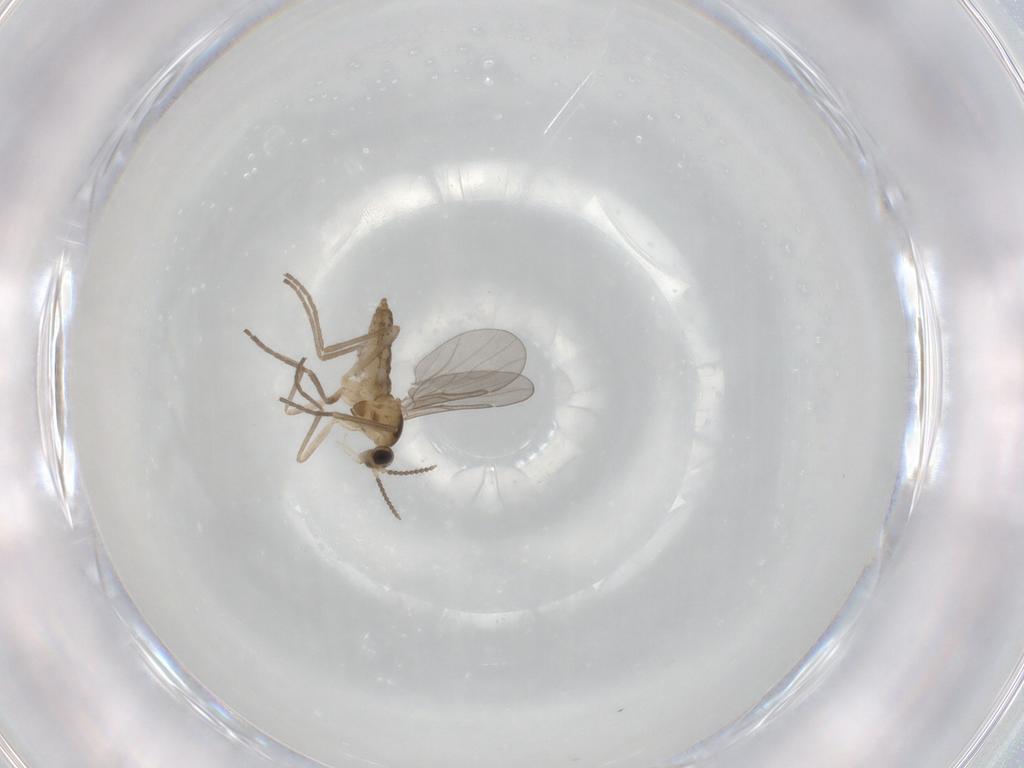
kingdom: Animalia
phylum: Arthropoda
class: Insecta
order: Diptera
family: Cecidomyiidae
